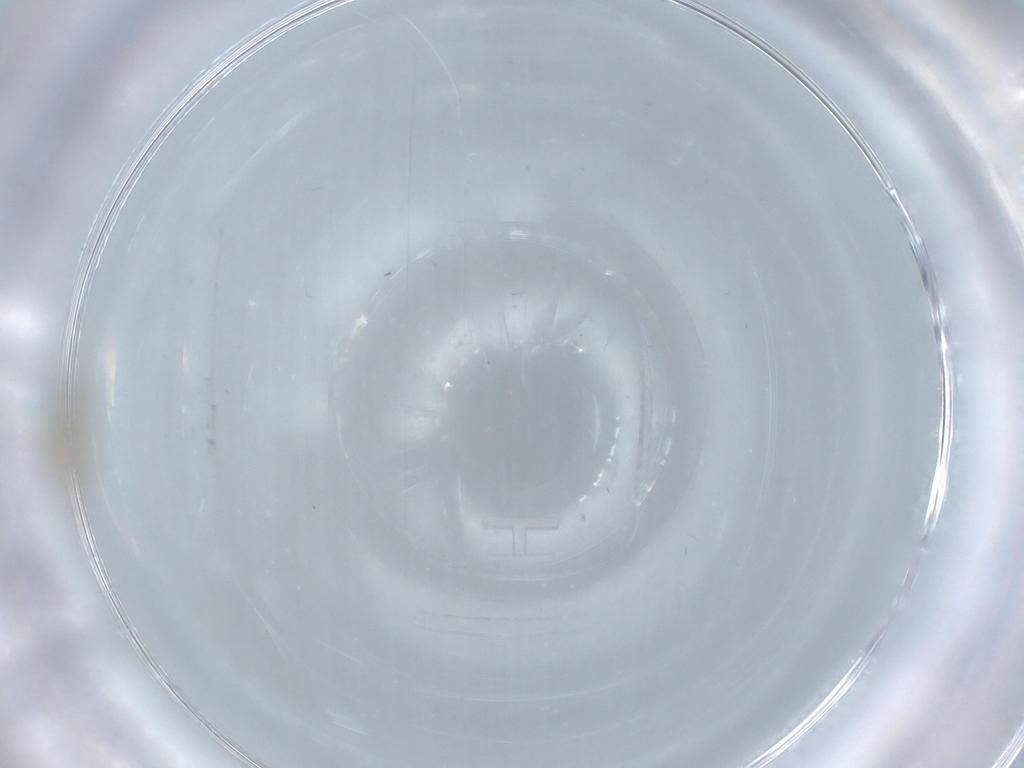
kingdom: Animalia
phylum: Arthropoda
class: Insecta
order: Diptera
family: Cecidomyiidae
